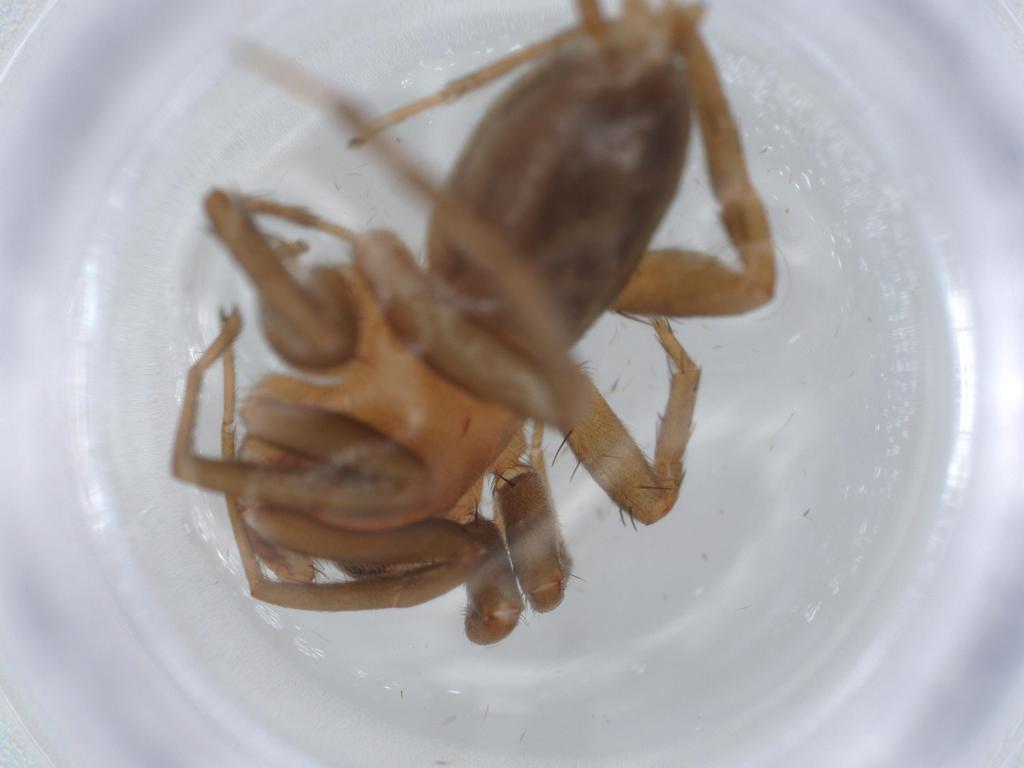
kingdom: Animalia
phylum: Arthropoda
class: Arachnida
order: Araneae
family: Gnaphosidae
